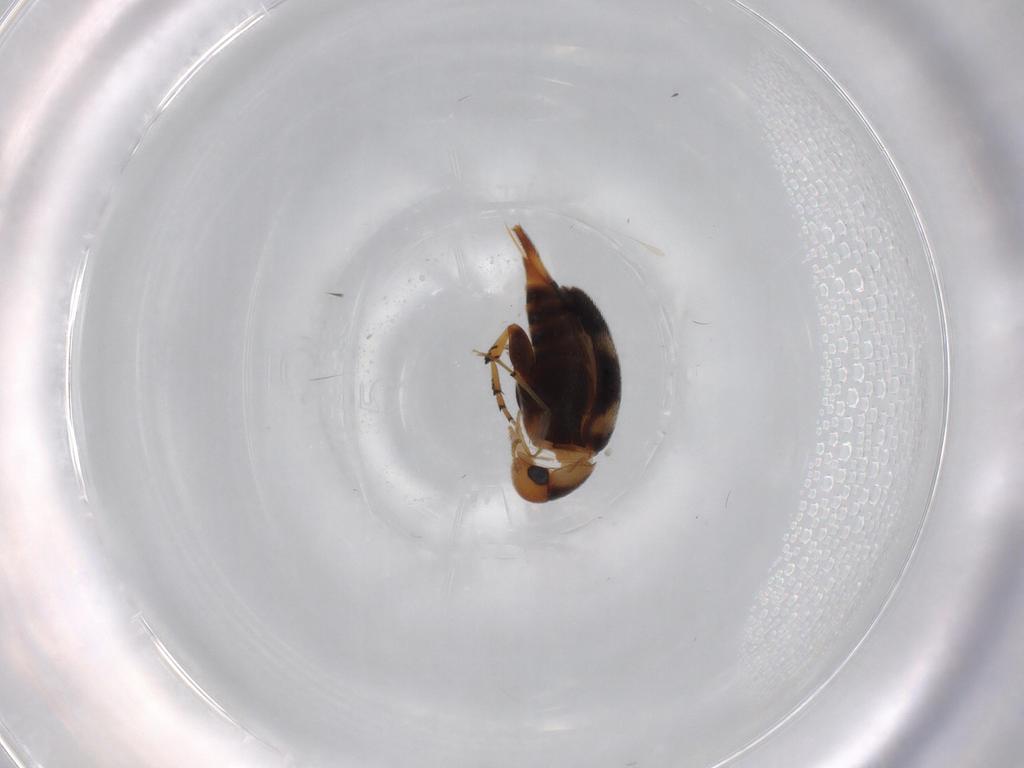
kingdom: Animalia
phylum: Arthropoda
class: Insecta
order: Coleoptera
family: Mordellidae
